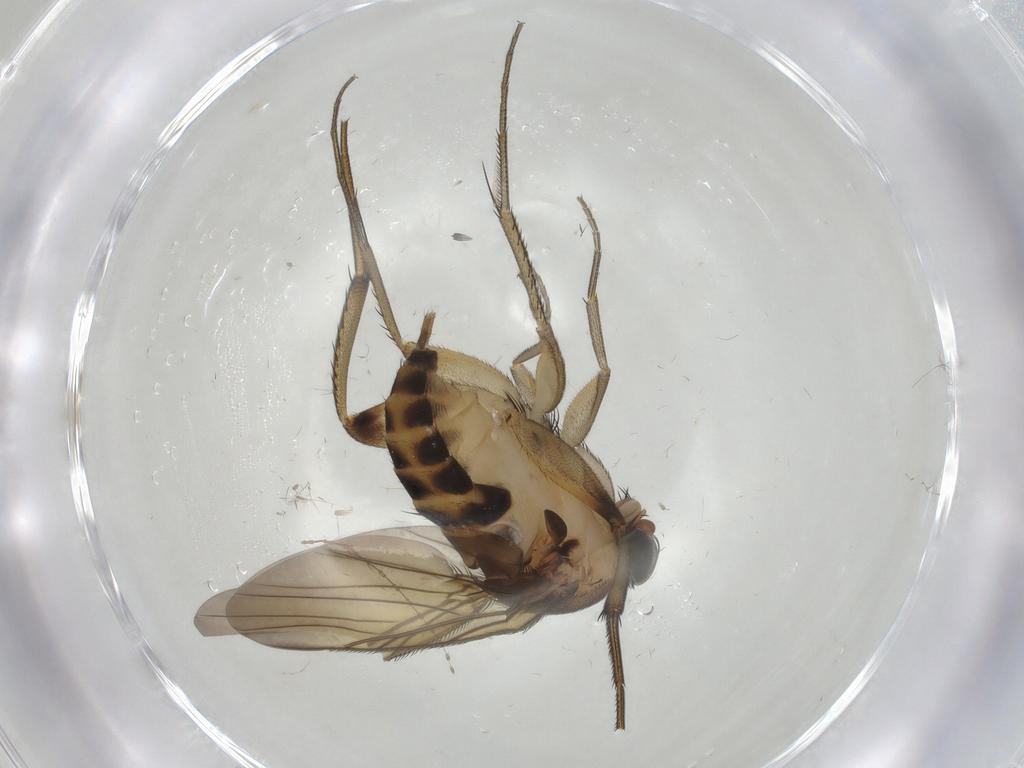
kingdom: Animalia
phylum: Arthropoda
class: Insecta
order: Diptera
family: Phoridae
